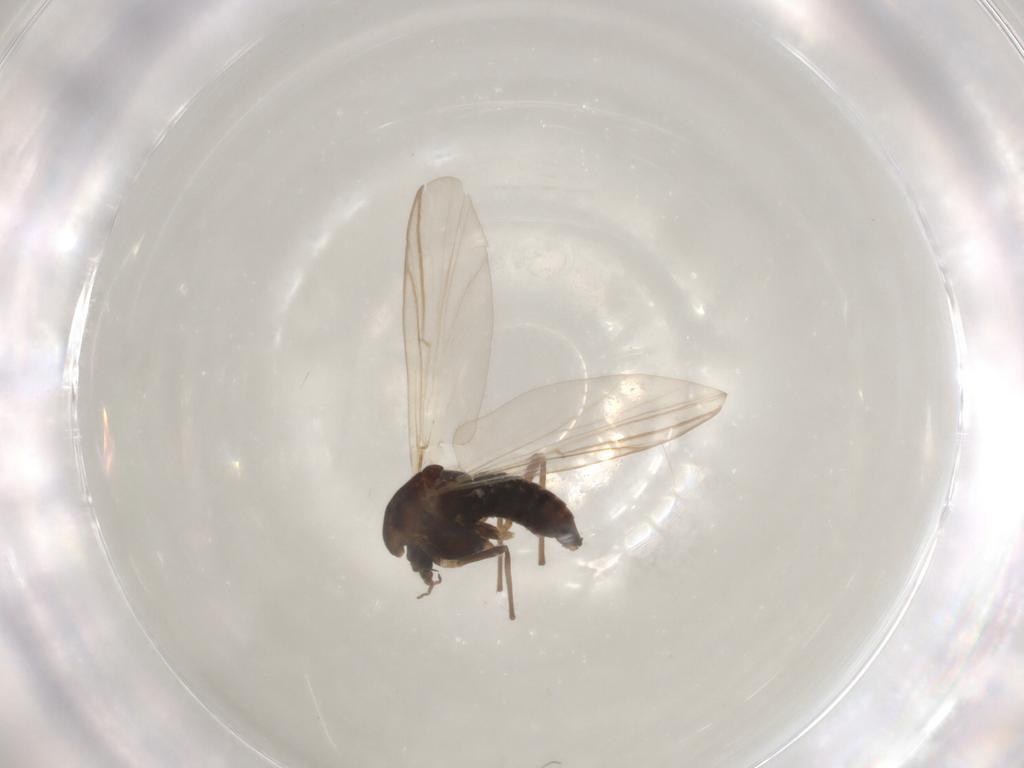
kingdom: Animalia
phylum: Arthropoda
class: Insecta
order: Diptera
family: Chironomidae
